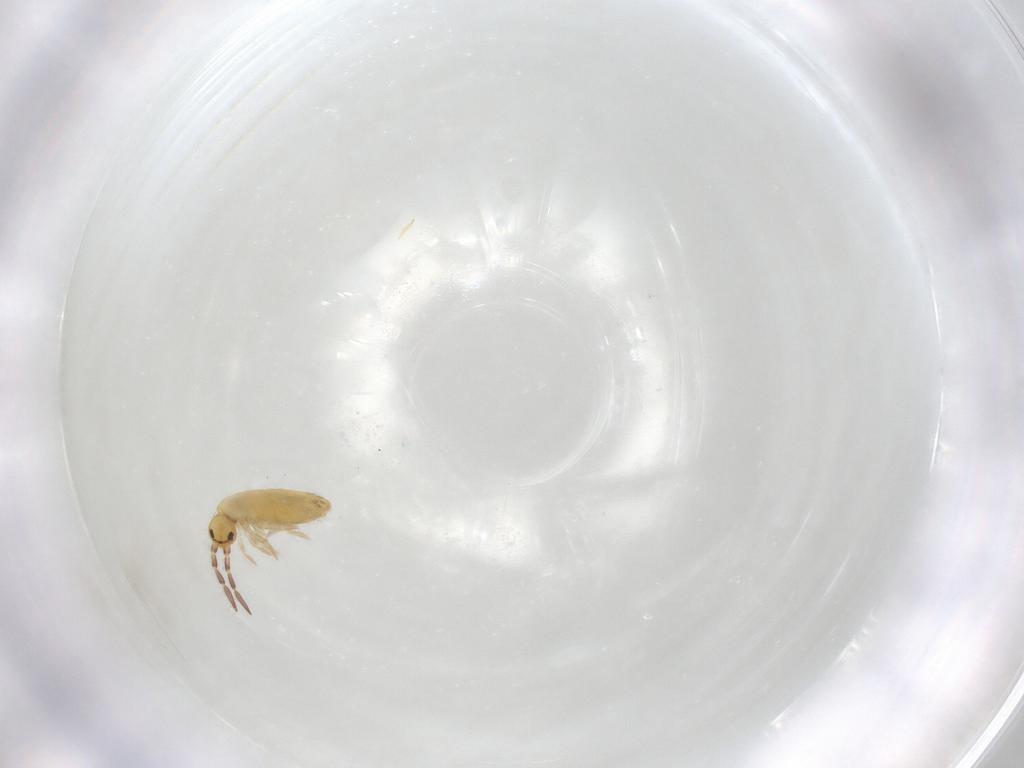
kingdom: Animalia
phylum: Arthropoda
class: Collembola
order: Entomobryomorpha
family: Entomobryidae
